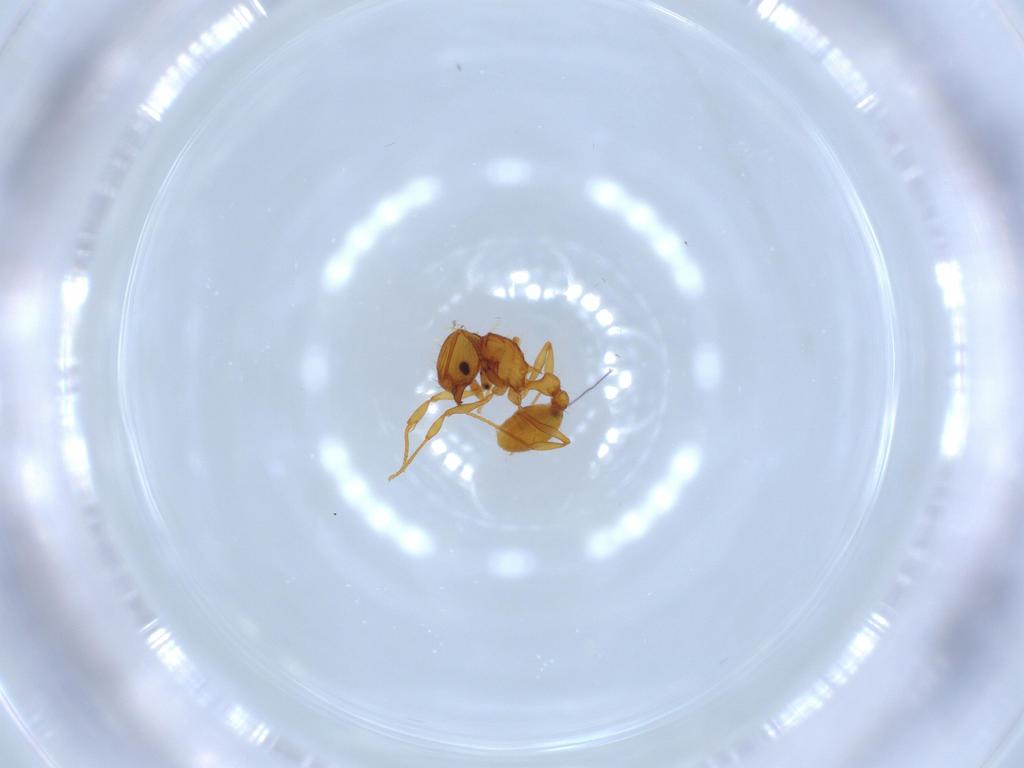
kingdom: Animalia
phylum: Arthropoda
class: Insecta
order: Hymenoptera
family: Formicidae
